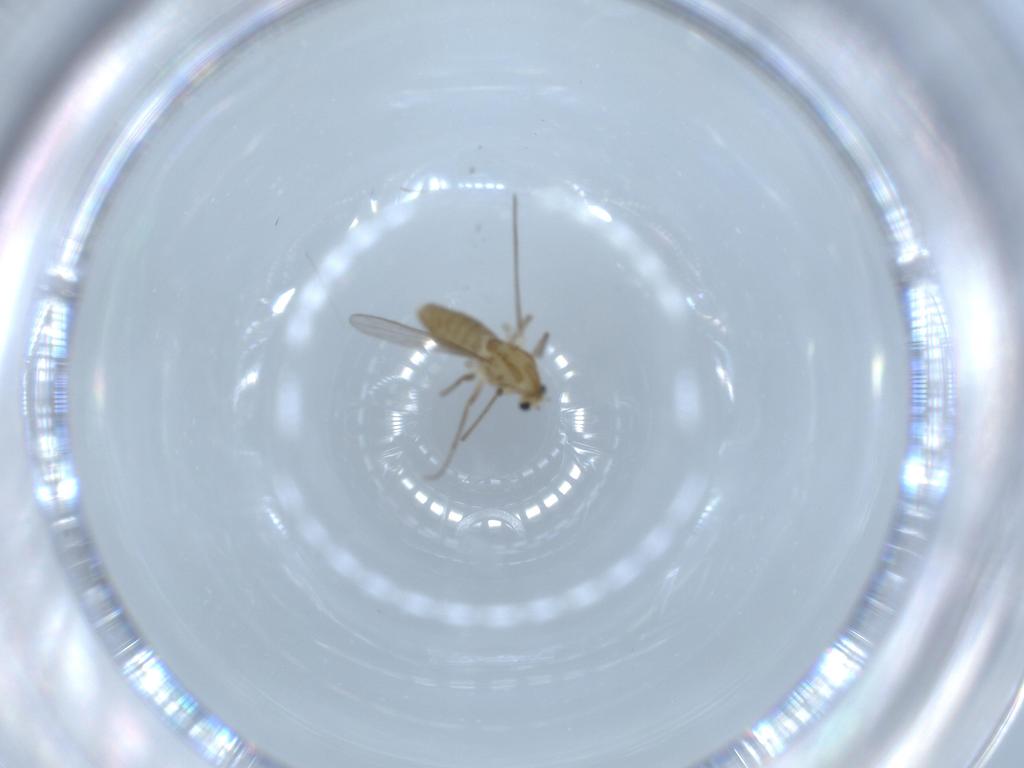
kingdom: Animalia
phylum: Arthropoda
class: Insecta
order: Diptera
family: Chironomidae
